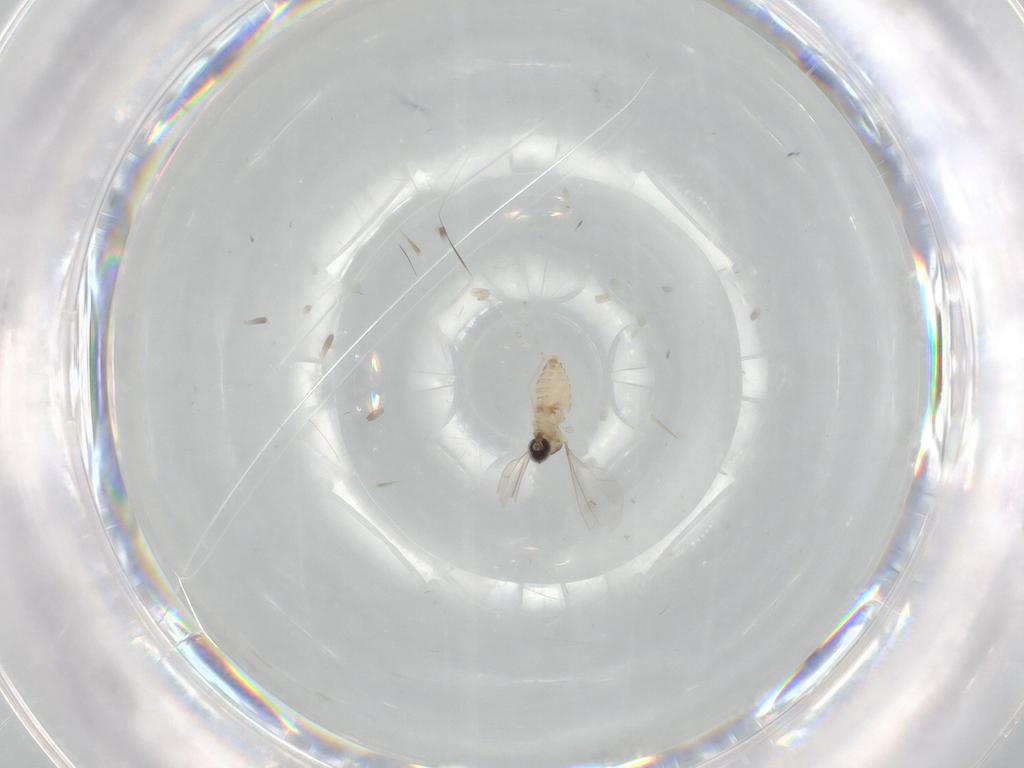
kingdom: Animalia
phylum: Arthropoda
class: Insecta
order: Diptera
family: Cecidomyiidae
